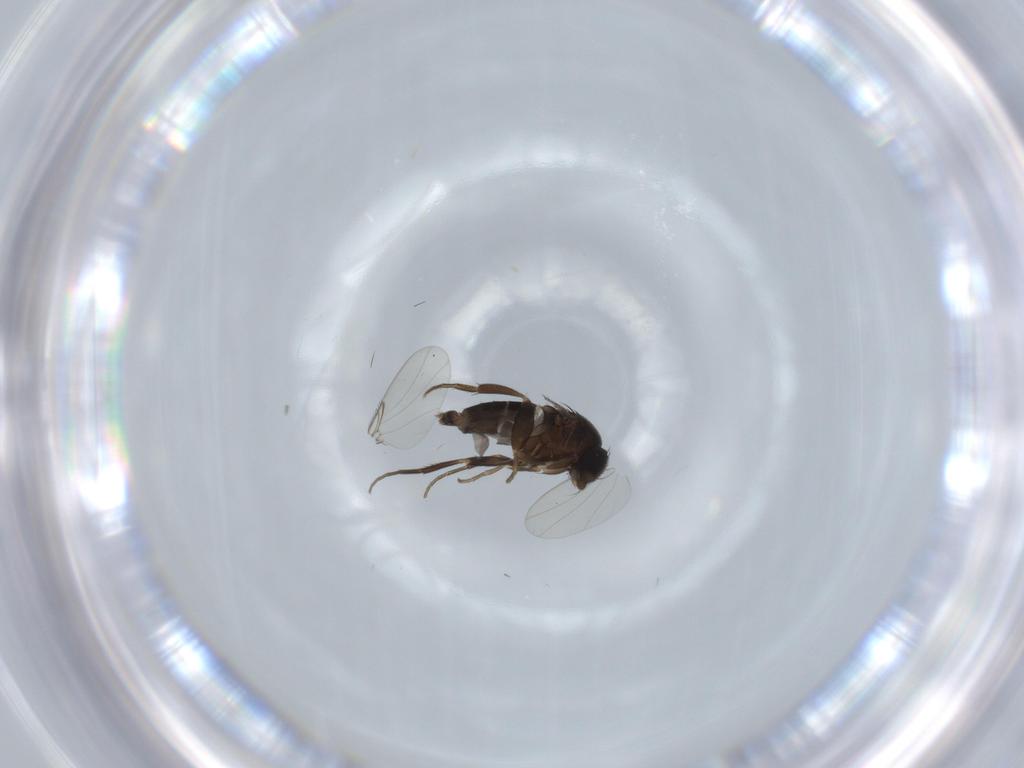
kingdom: Animalia
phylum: Arthropoda
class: Insecta
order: Diptera
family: Phoridae
